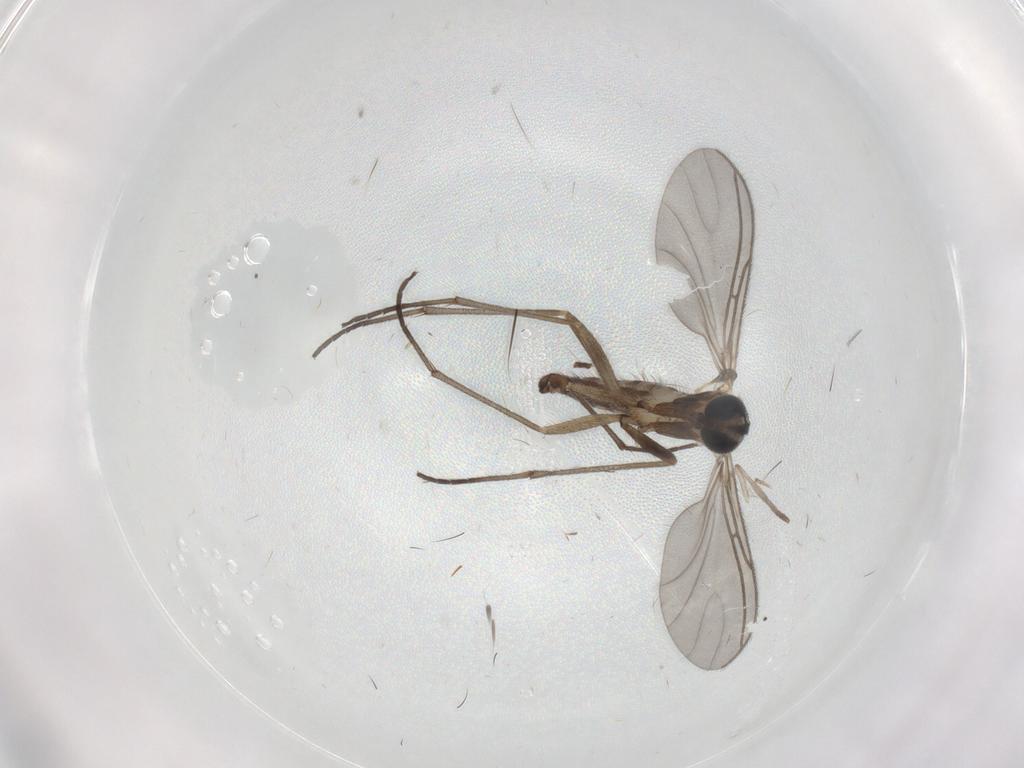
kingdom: Animalia
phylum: Arthropoda
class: Insecta
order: Diptera
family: Sciaridae
